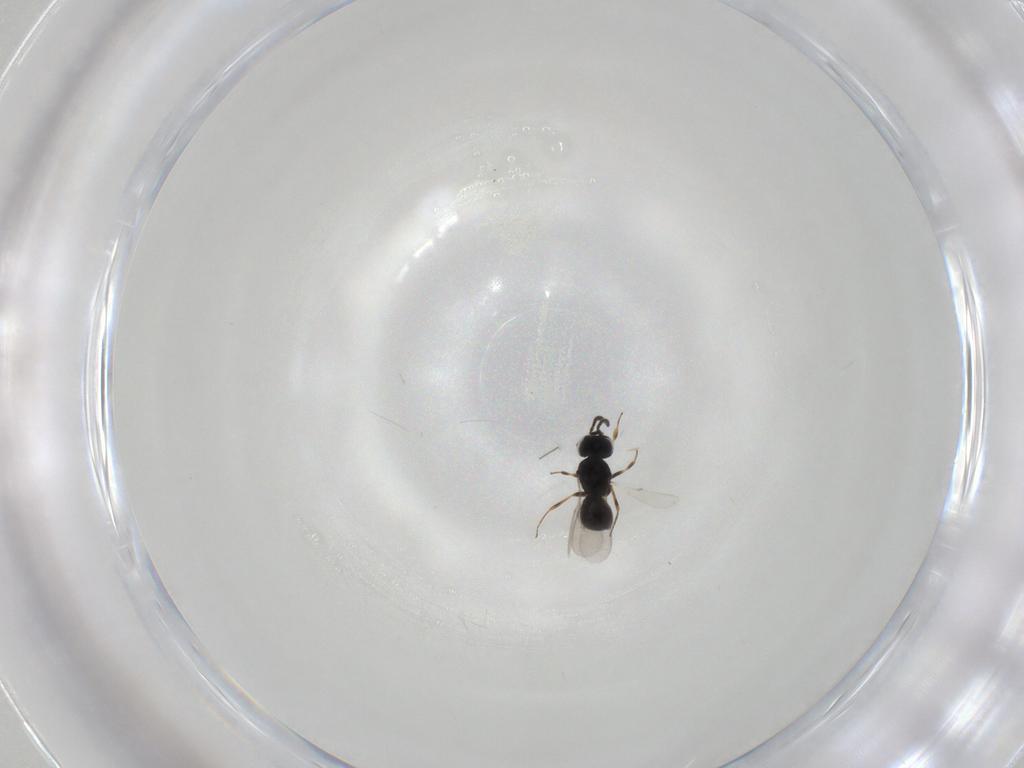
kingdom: Animalia
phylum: Arthropoda
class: Insecta
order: Hymenoptera
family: Scelionidae
